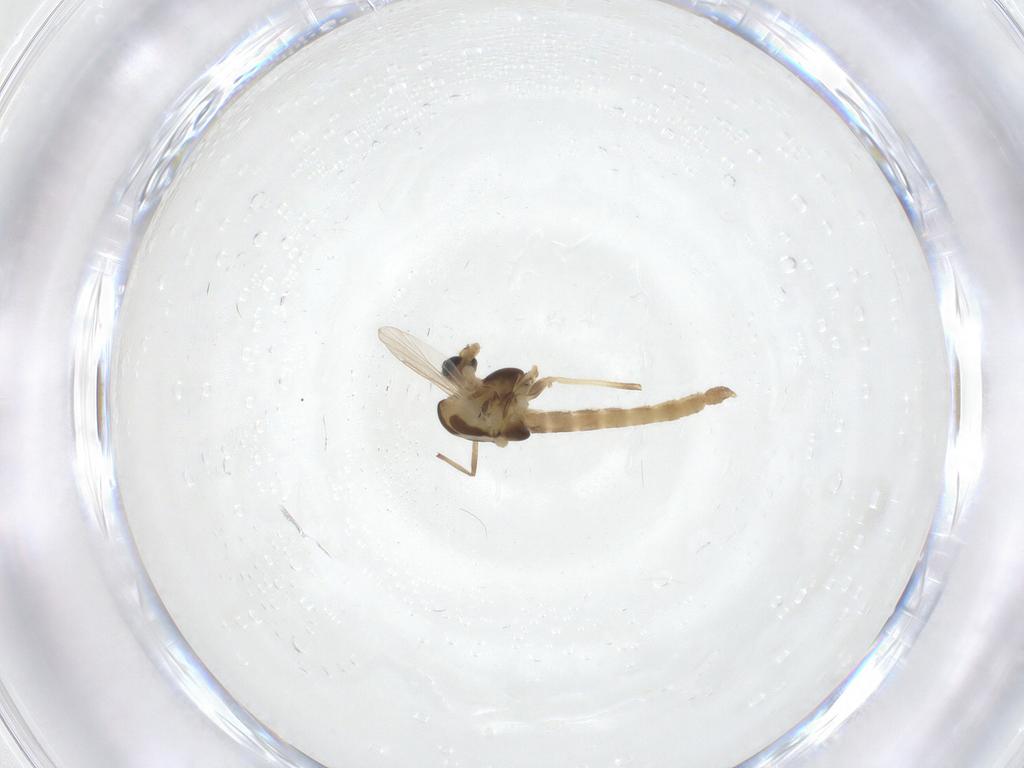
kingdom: Animalia
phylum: Arthropoda
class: Insecta
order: Diptera
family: Chironomidae
